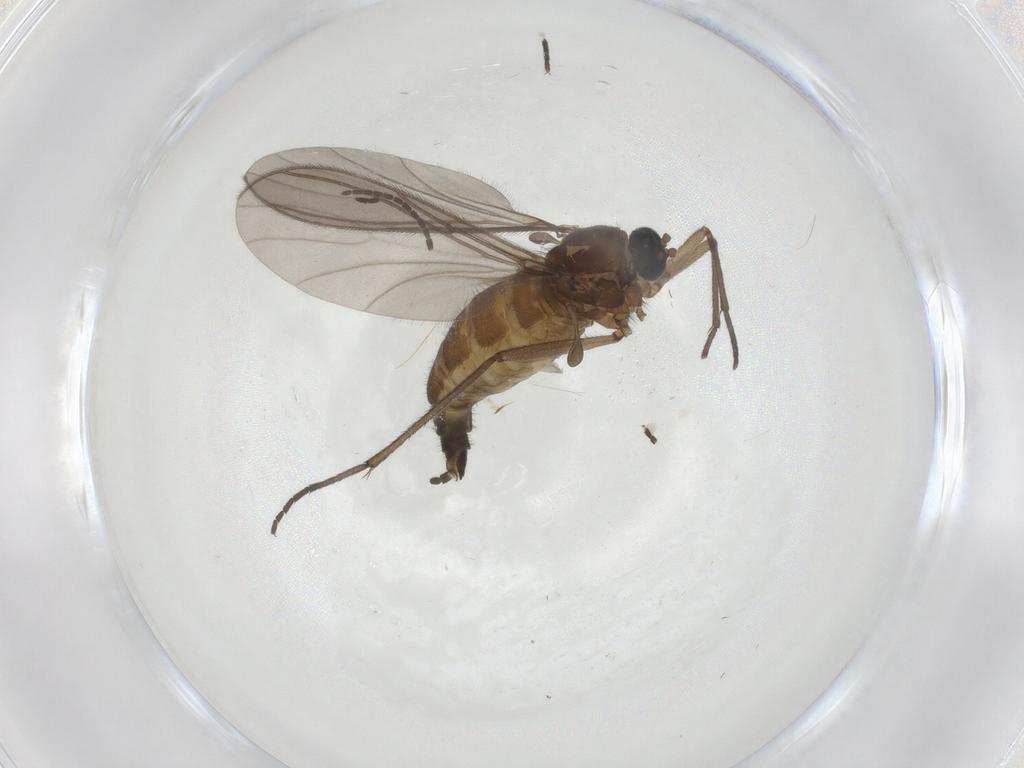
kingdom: Animalia
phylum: Arthropoda
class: Insecta
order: Diptera
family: Sciaridae
